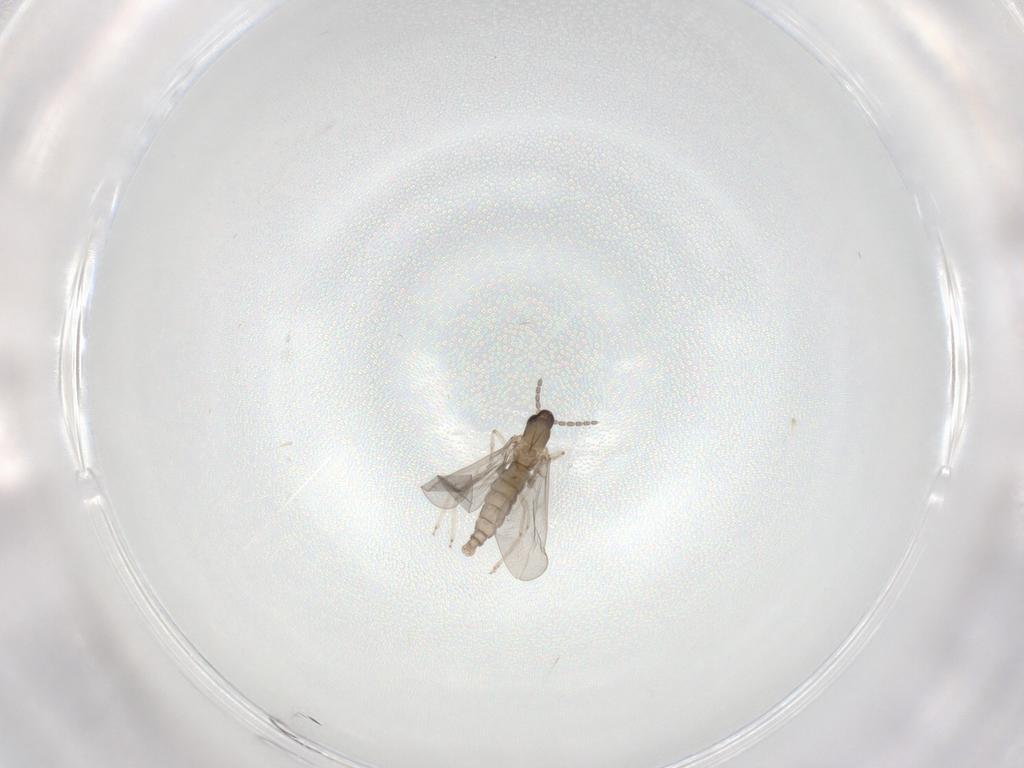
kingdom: Animalia
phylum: Arthropoda
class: Insecta
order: Diptera
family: Sphaeroceridae
